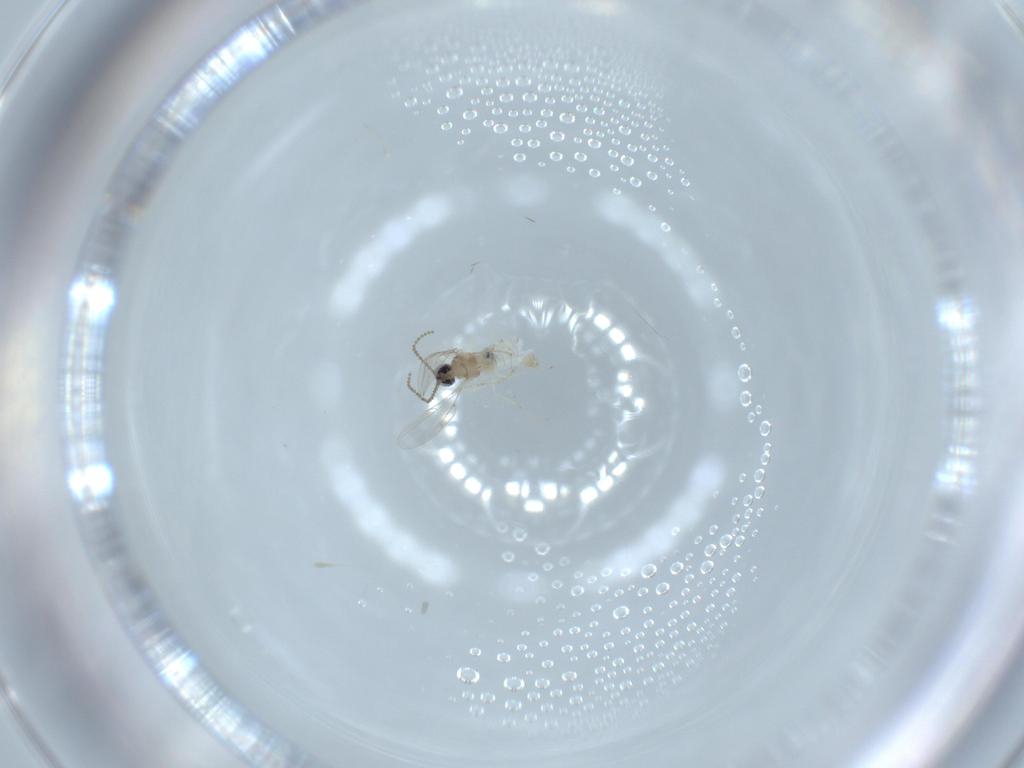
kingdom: Animalia
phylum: Arthropoda
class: Insecta
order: Diptera
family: Cecidomyiidae
